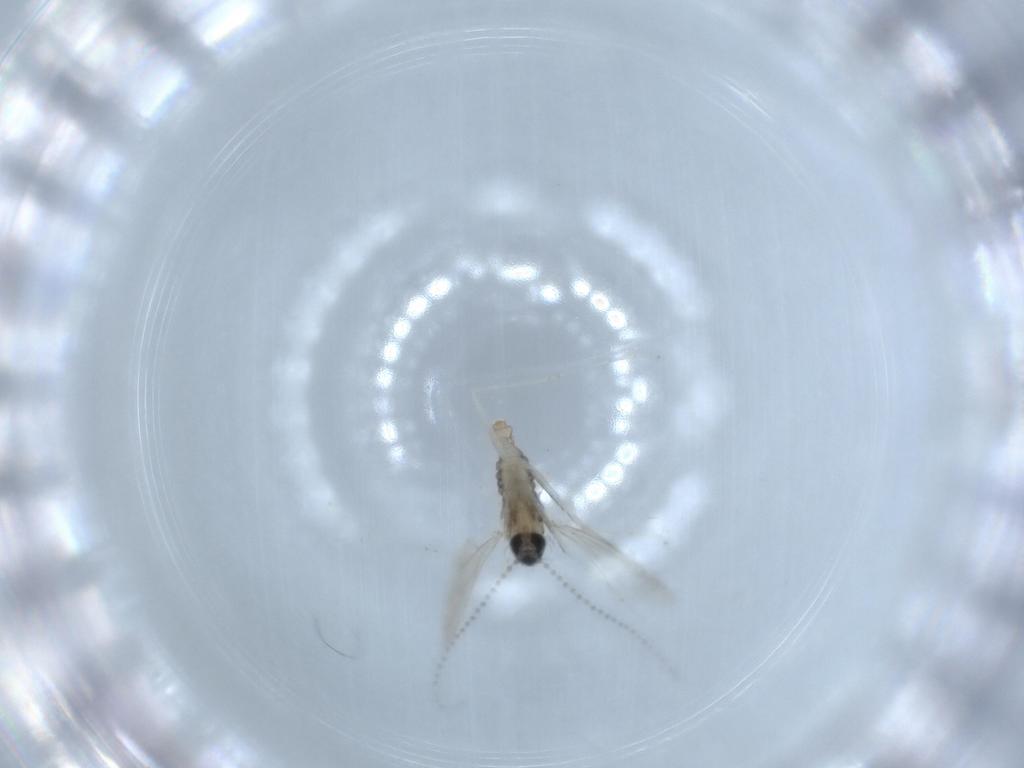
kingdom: Animalia
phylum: Arthropoda
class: Insecta
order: Diptera
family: Cecidomyiidae
